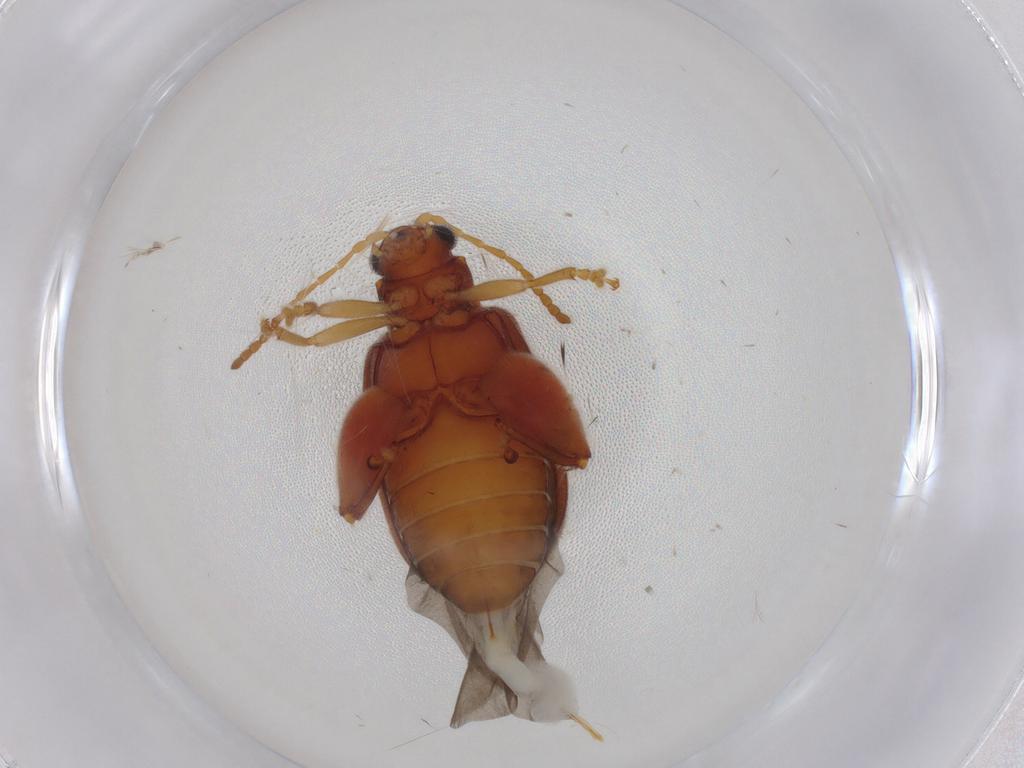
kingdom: Animalia
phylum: Arthropoda
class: Insecta
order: Coleoptera
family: Chrysomelidae
